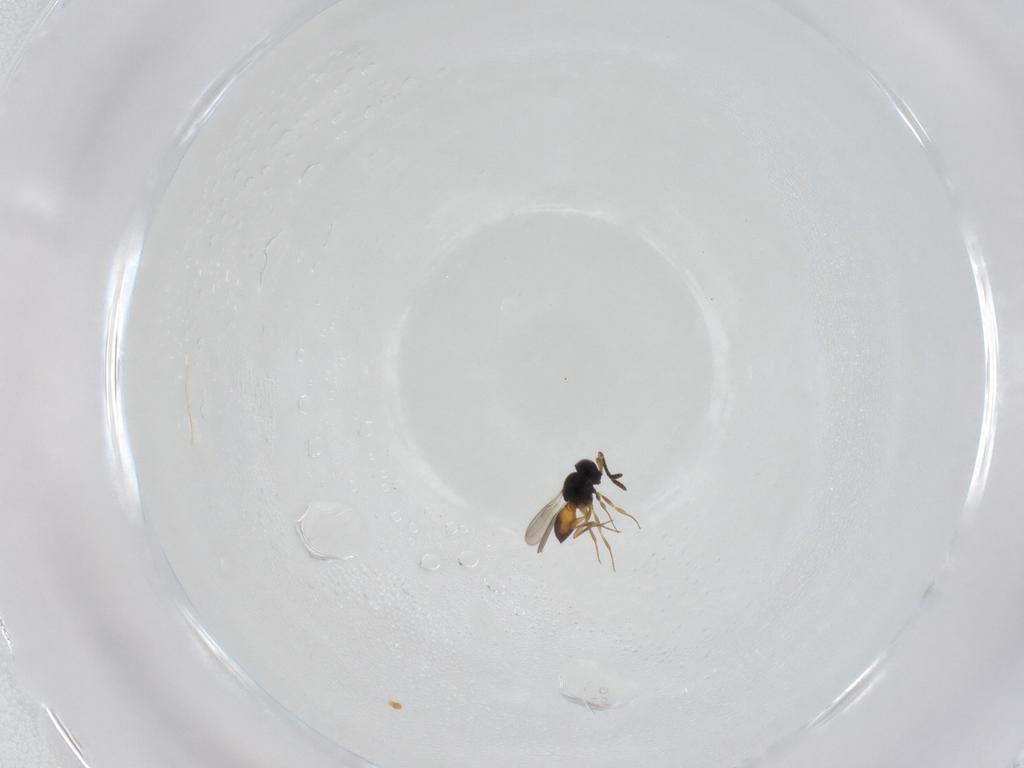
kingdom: Animalia
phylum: Arthropoda
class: Insecta
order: Hymenoptera
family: Scelionidae
